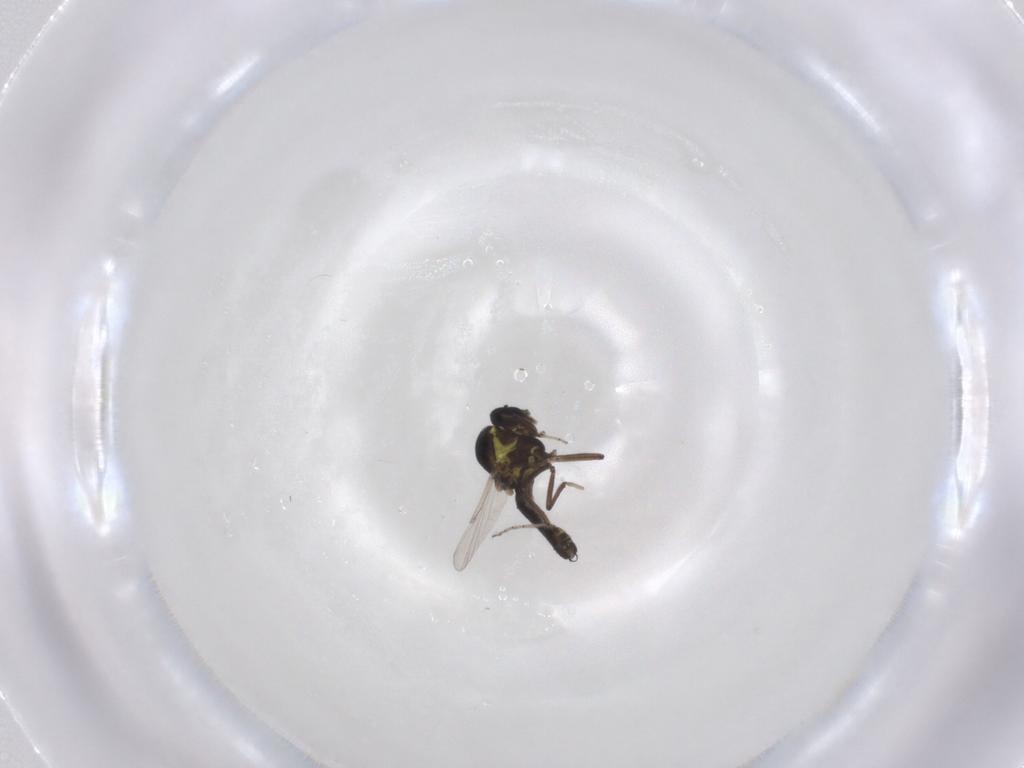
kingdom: Animalia
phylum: Arthropoda
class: Insecta
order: Diptera
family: Ceratopogonidae
